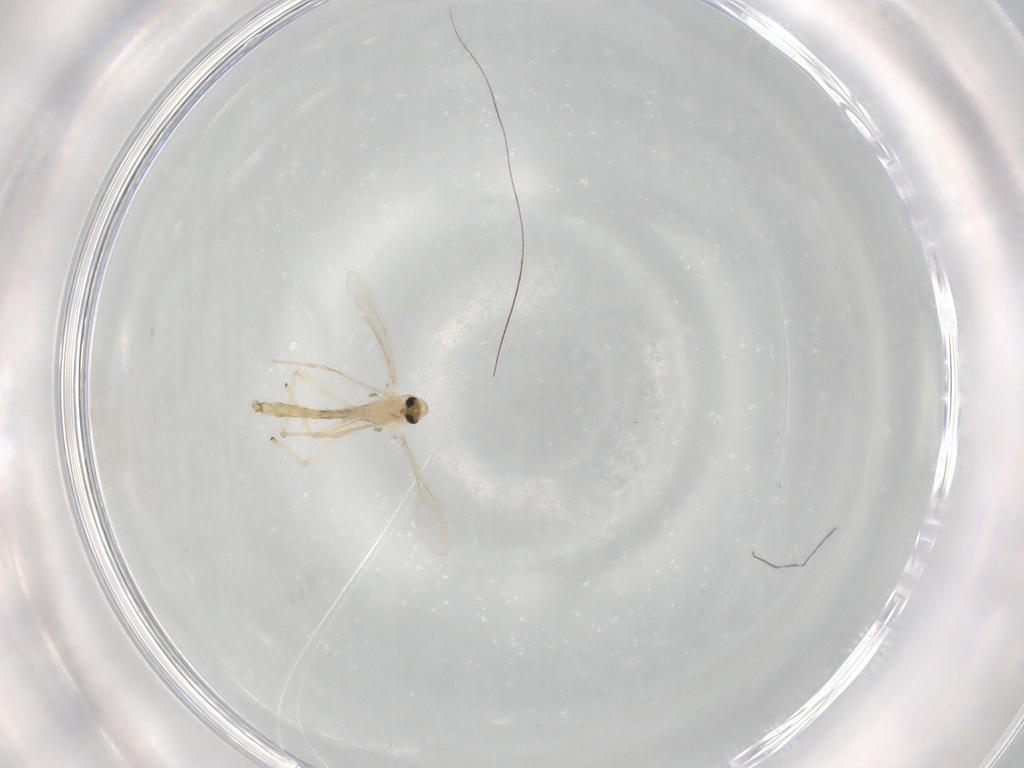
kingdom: Animalia
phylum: Arthropoda
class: Insecta
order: Diptera
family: Chironomidae
